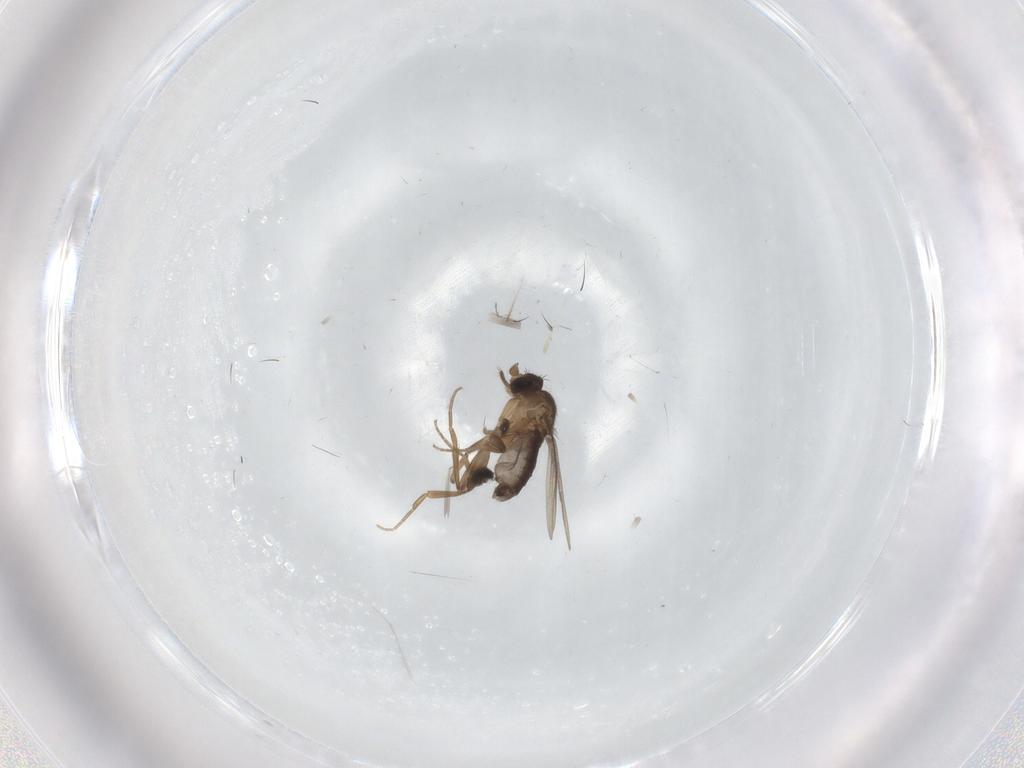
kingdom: Animalia
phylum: Arthropoda
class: Insecta
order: Diptera
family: Tabanidae
